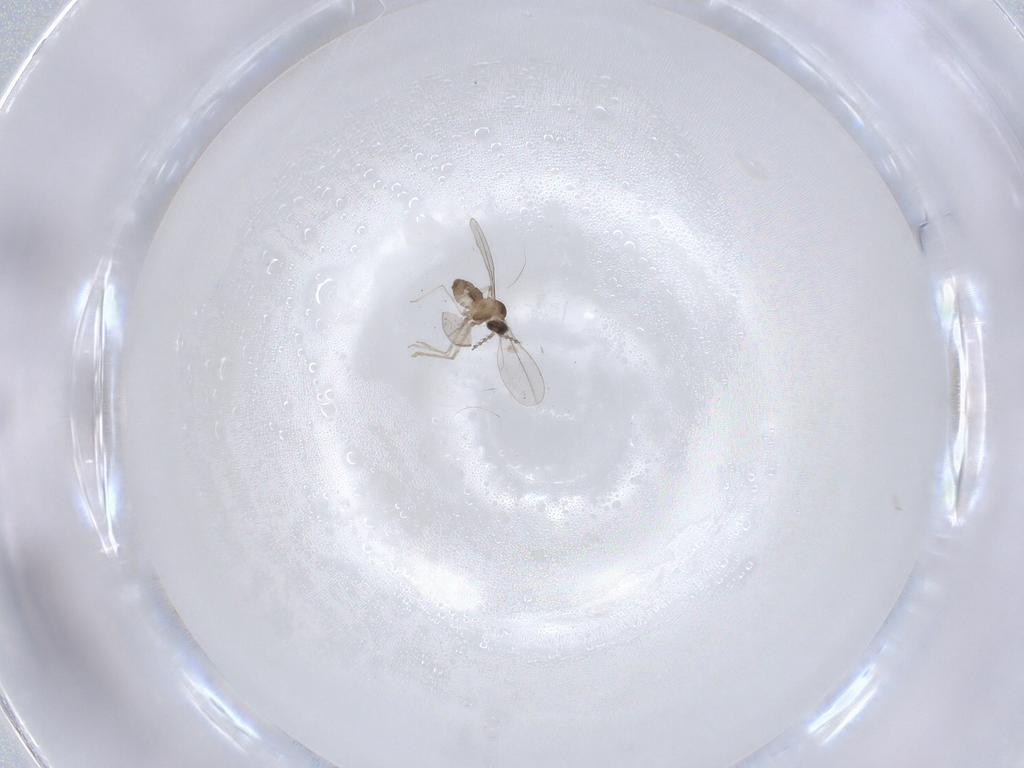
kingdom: Animalia
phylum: Arthropoda
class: Insecta
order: Diptera
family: Cecidomyiidae
